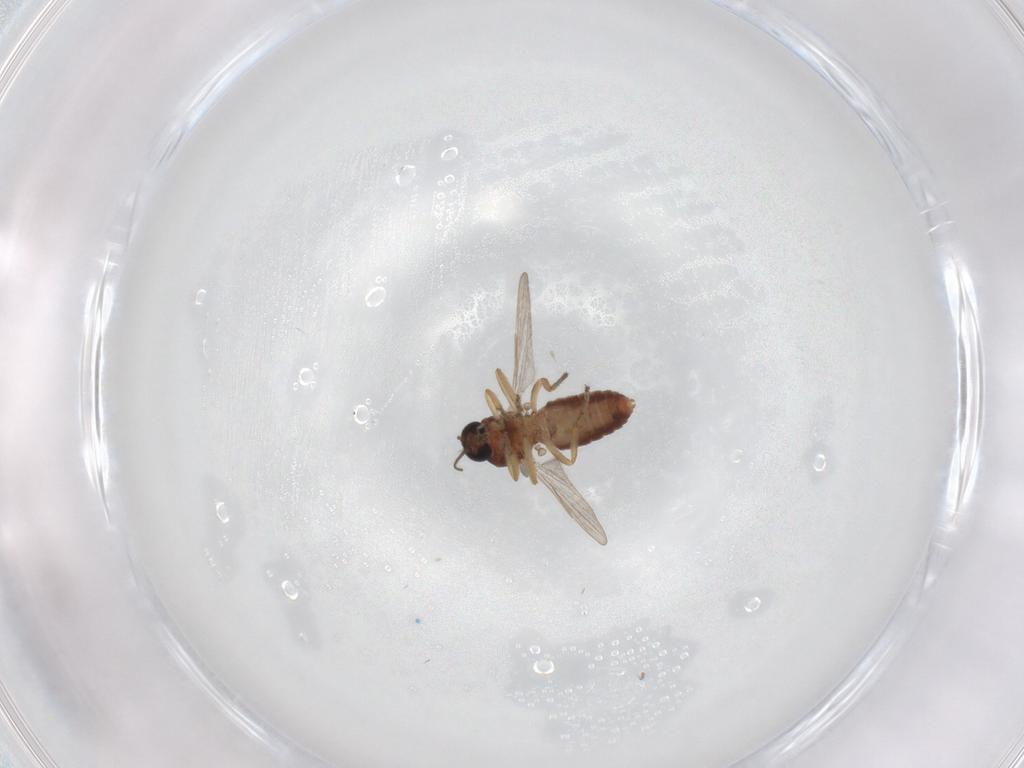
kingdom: Animalia
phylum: Arthropoda
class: Insecta
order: Diptera
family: Ceratopogonidae
